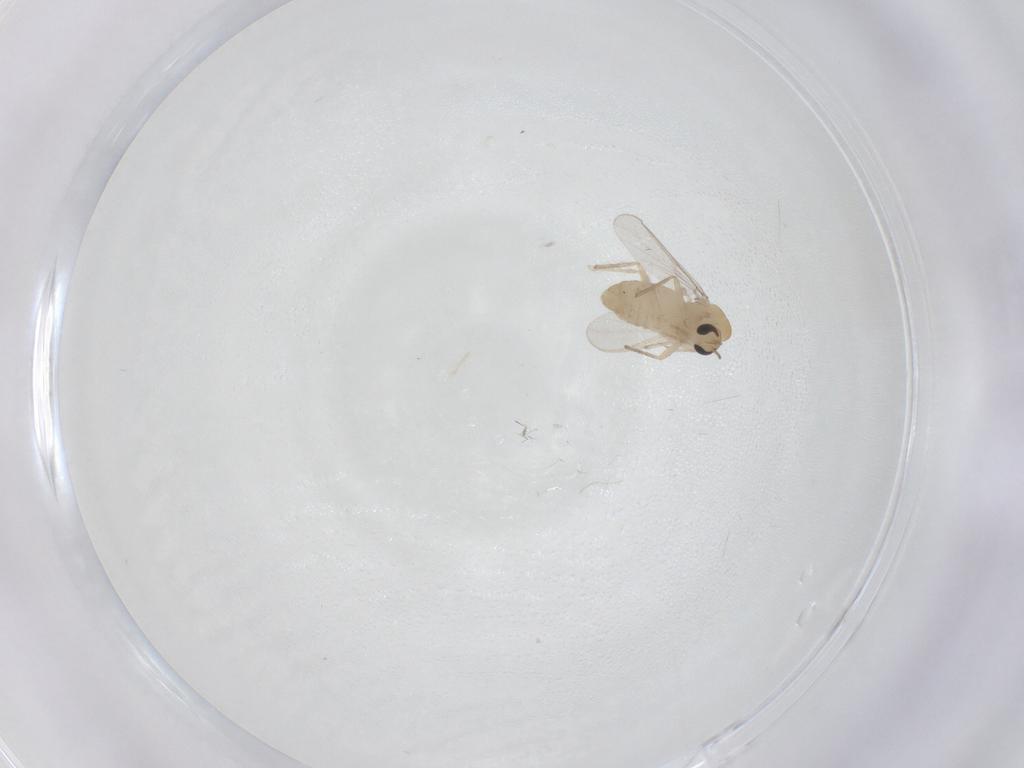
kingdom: Animalia
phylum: Arthropoda
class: Insecta
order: Diptera
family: Chironomidae
